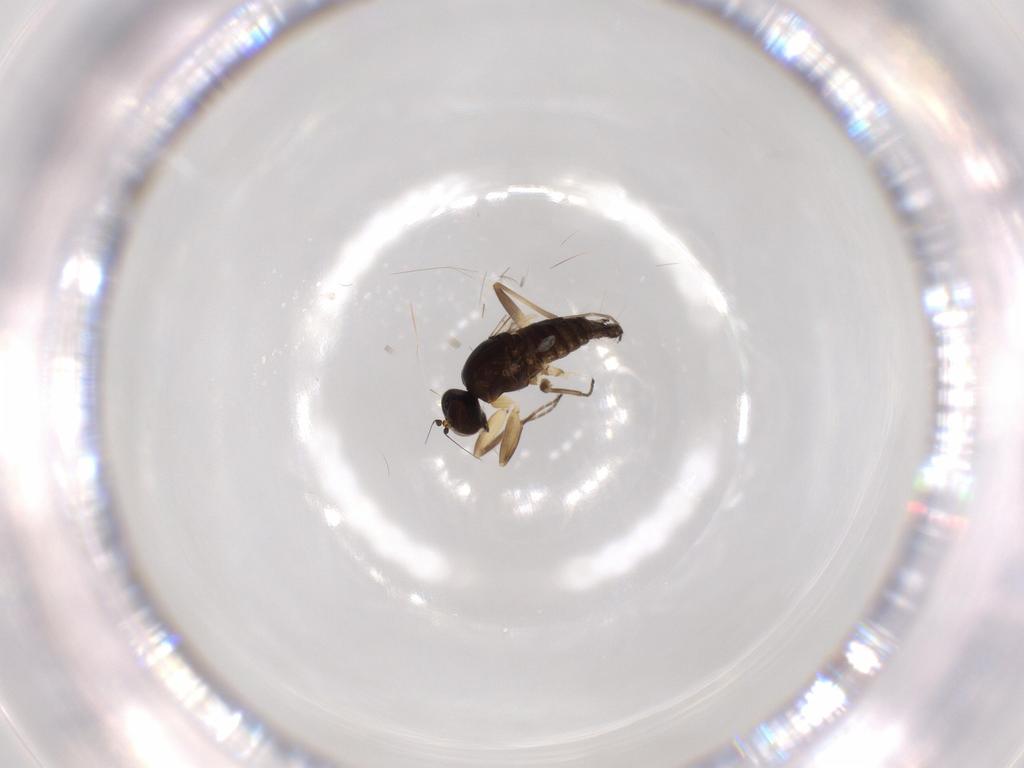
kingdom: Animalia
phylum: Arthropoda
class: Insecta
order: Diptera
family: Hybotidae
